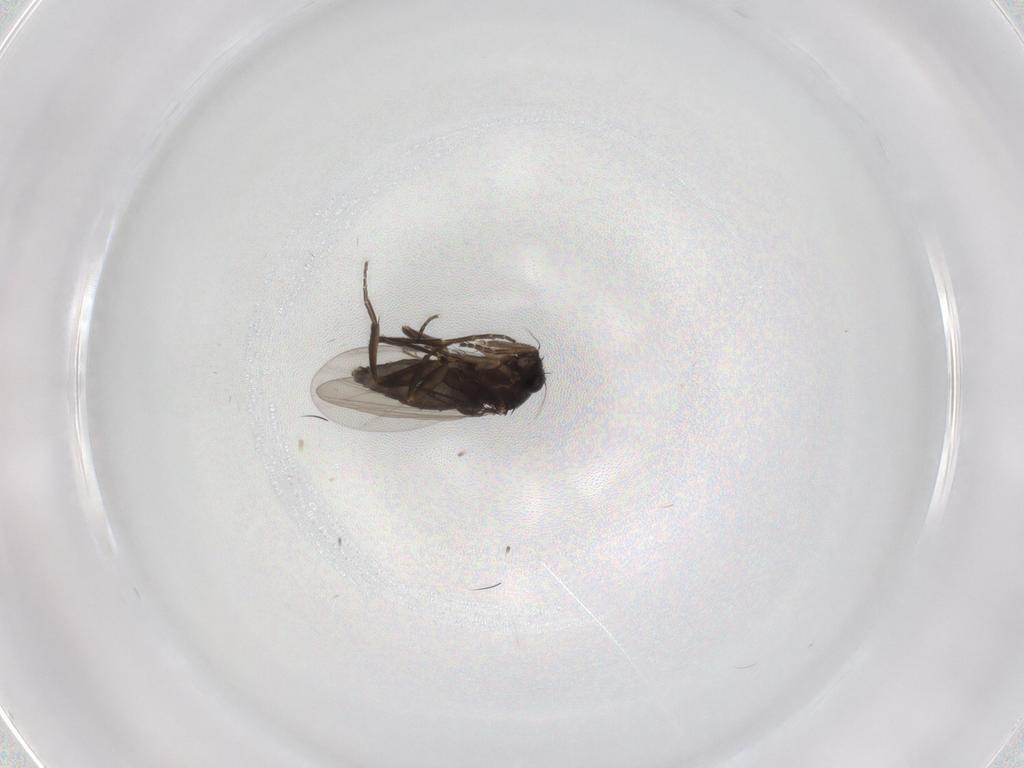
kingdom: Animalia
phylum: Arthropoda
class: Insecta
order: Diptera
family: Phoridae
